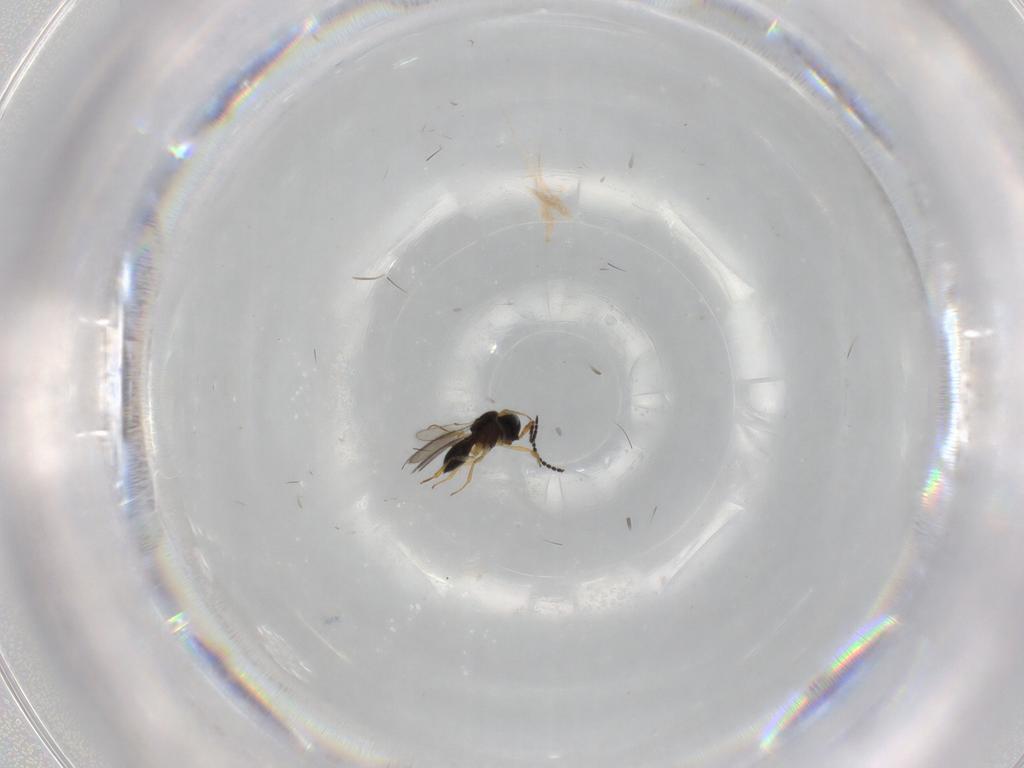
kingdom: Animalia
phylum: Arthropoda
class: Insecta
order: Hymenoptera
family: Scelionidae
